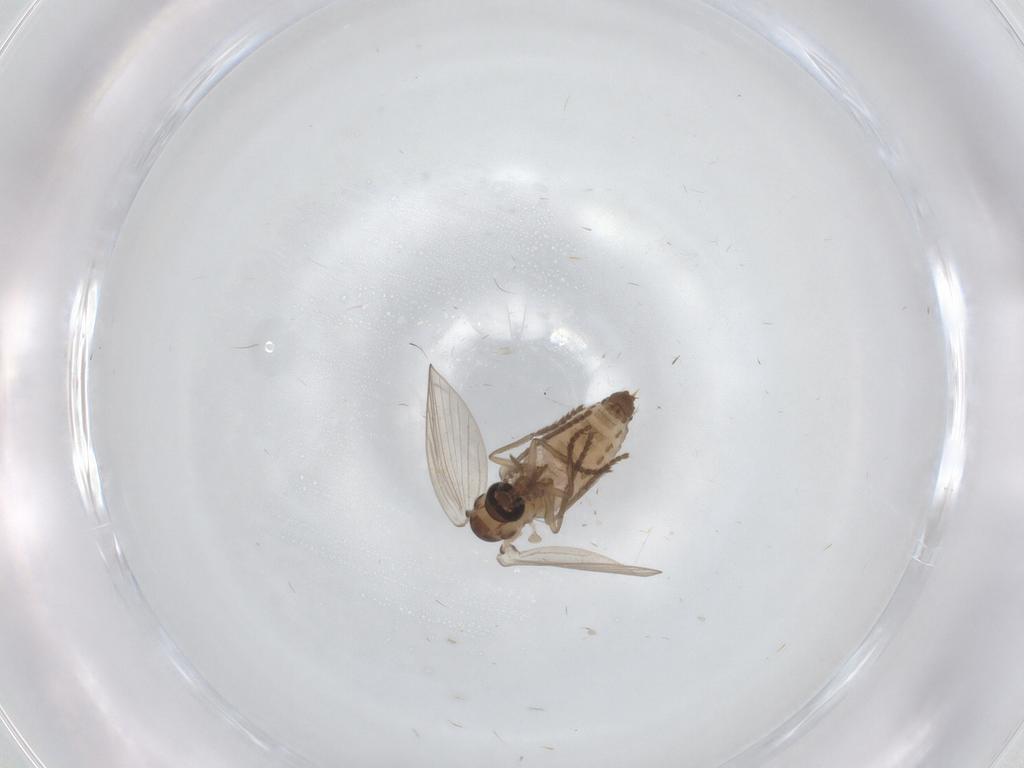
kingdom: Animalia
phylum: Arthropoda
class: Insecta
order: Diptera
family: Psychodidae
